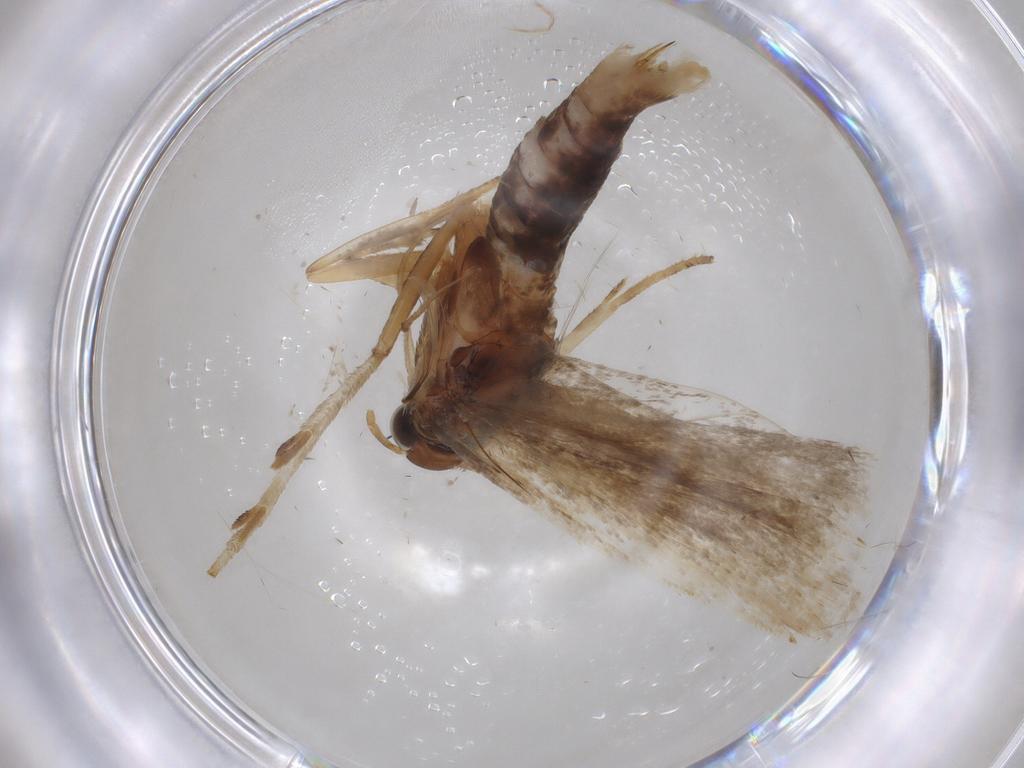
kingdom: Animalia
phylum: Arthropoda
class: Insecta
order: Lepidoptera
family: Gelechiidae
